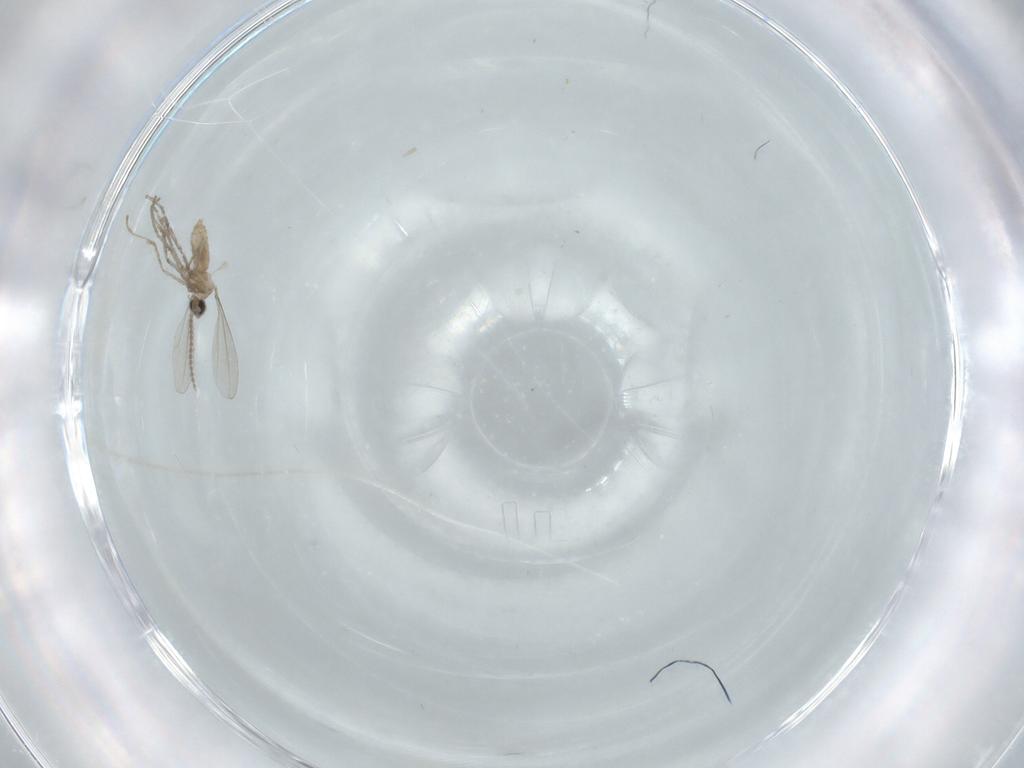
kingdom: Animalia
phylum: Arthropoda
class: Insecta
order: Diptera
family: Cecidomyiidae
